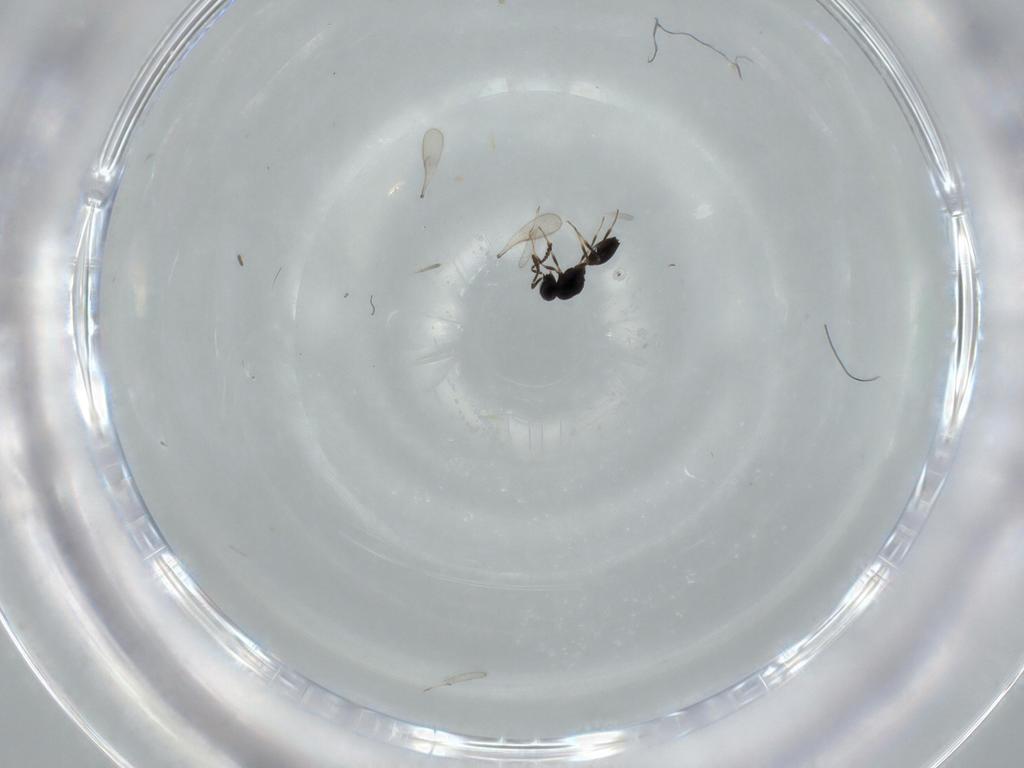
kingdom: Animalia
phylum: Arthropoda
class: Insecta
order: Hymenoptera
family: Scelionidae
